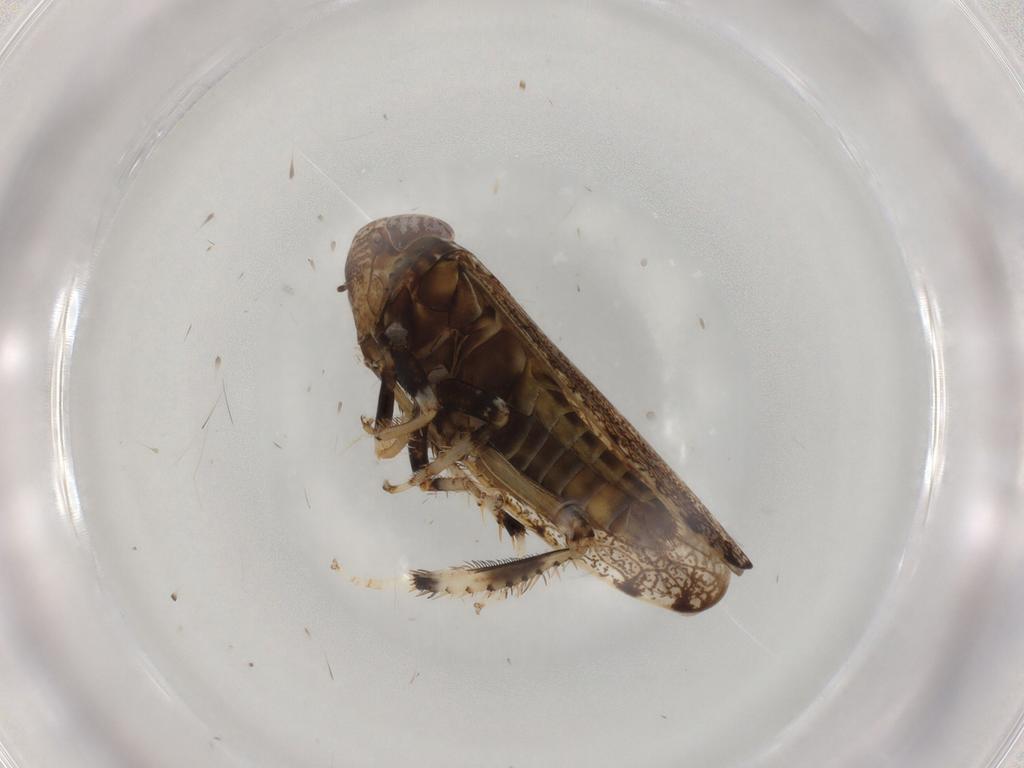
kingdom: Animalia
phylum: Arthropoda
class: Insecta
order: Hemiptera
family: Cicadellidae
